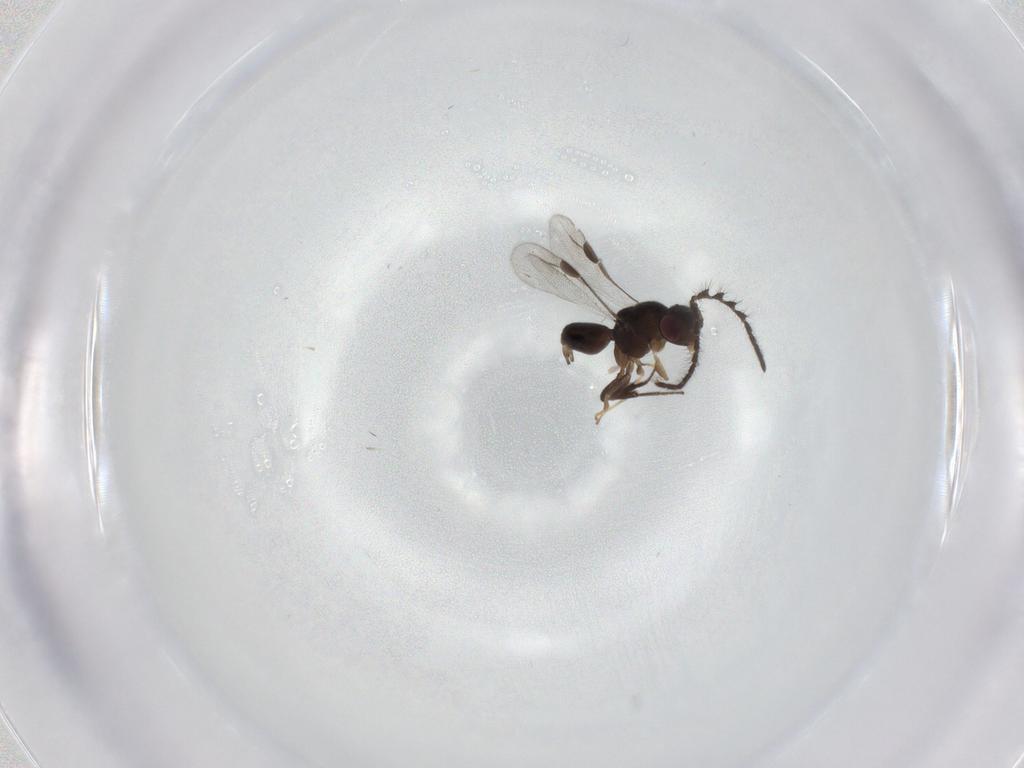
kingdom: Animalia
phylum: Arthropoda
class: Insecta
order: Hymenoptera
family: Megaspilidae
